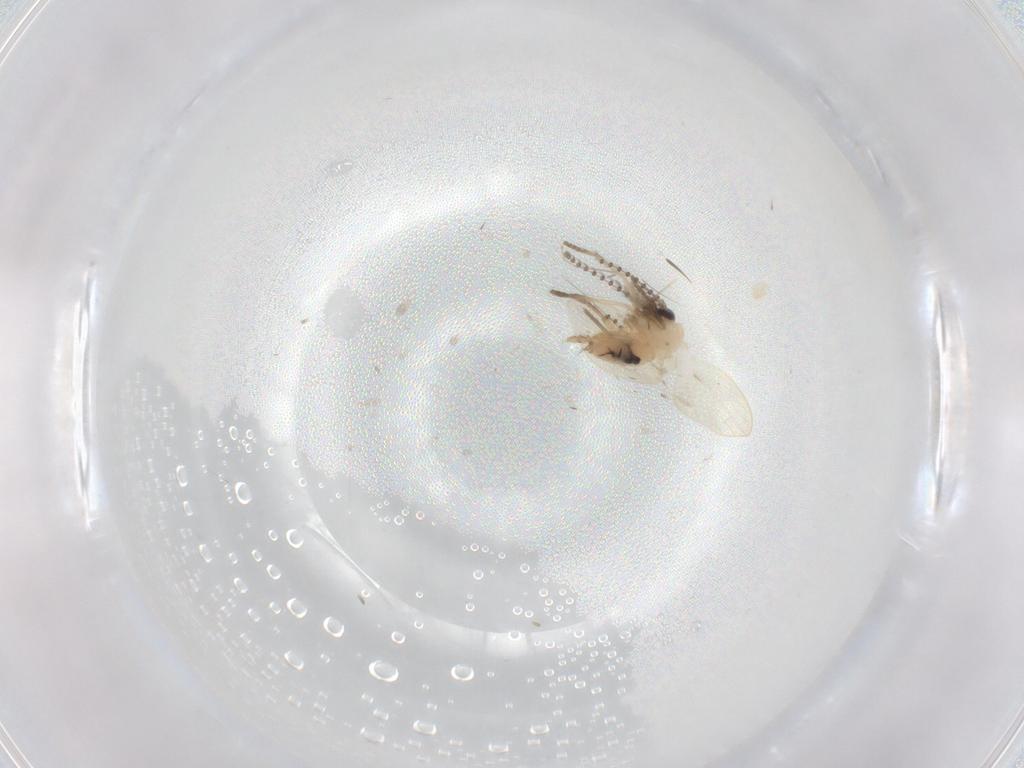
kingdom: Animalia
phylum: Arthropoda
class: Insecta
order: Diptera
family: Psychodidae
